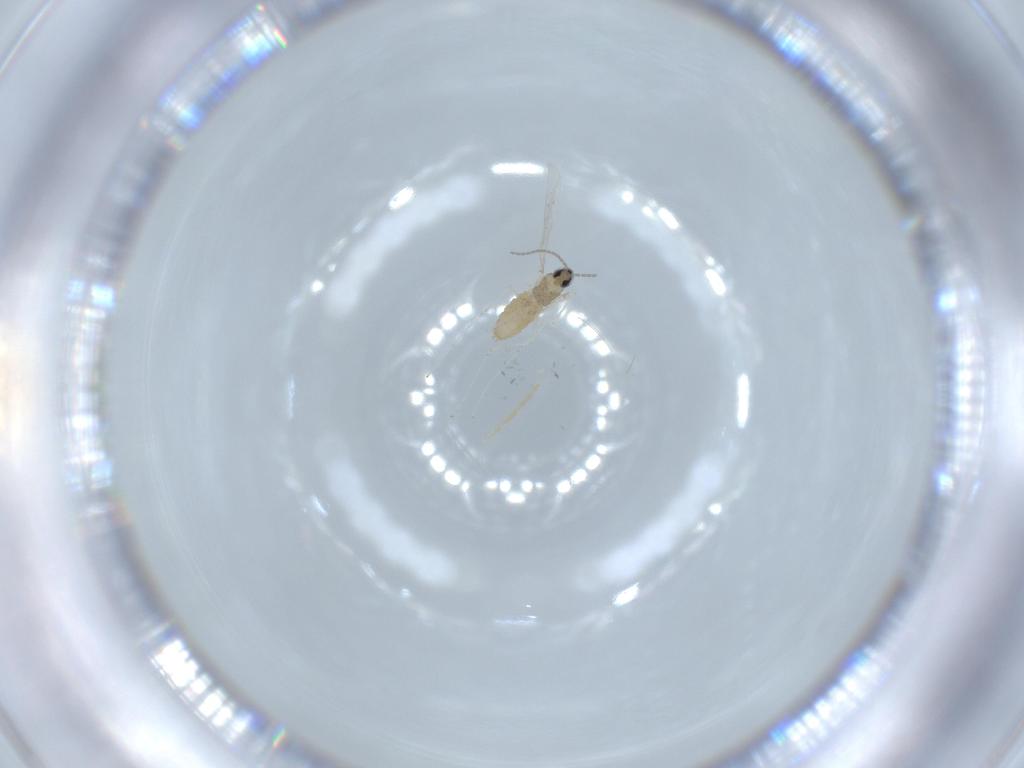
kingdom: Animalia
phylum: Arthropoda
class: Insecta
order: Diptera
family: Cecidomyiidae
